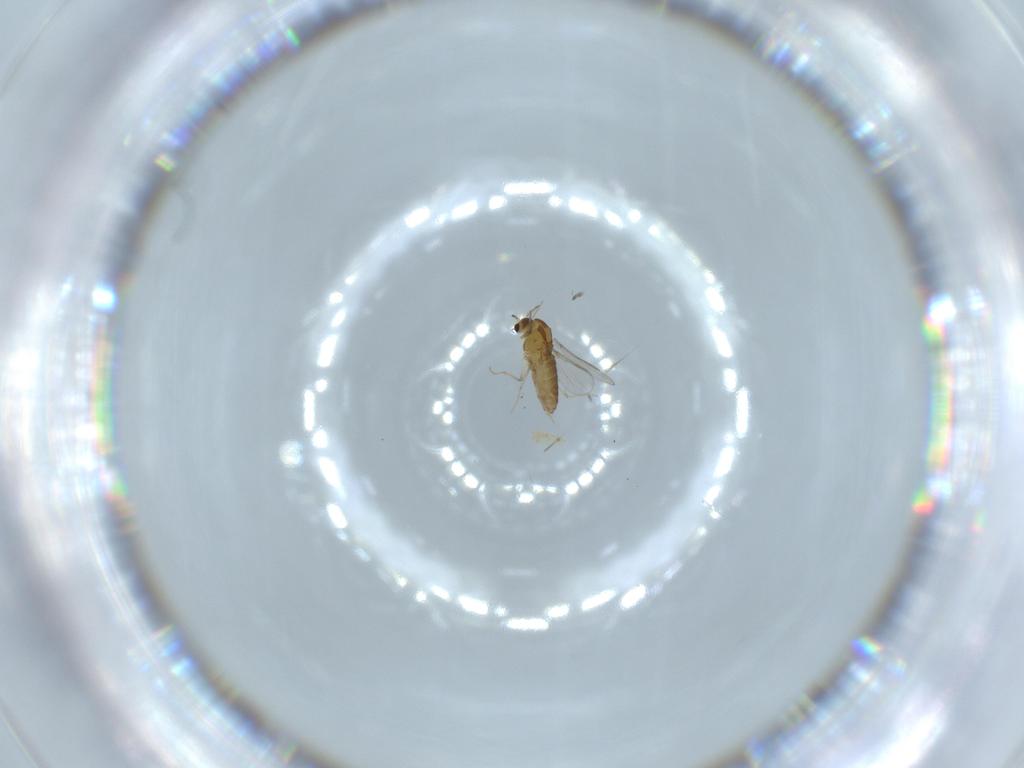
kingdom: Animalia
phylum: Arthropoda
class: Insecta
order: Diptera
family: Chironomidae
